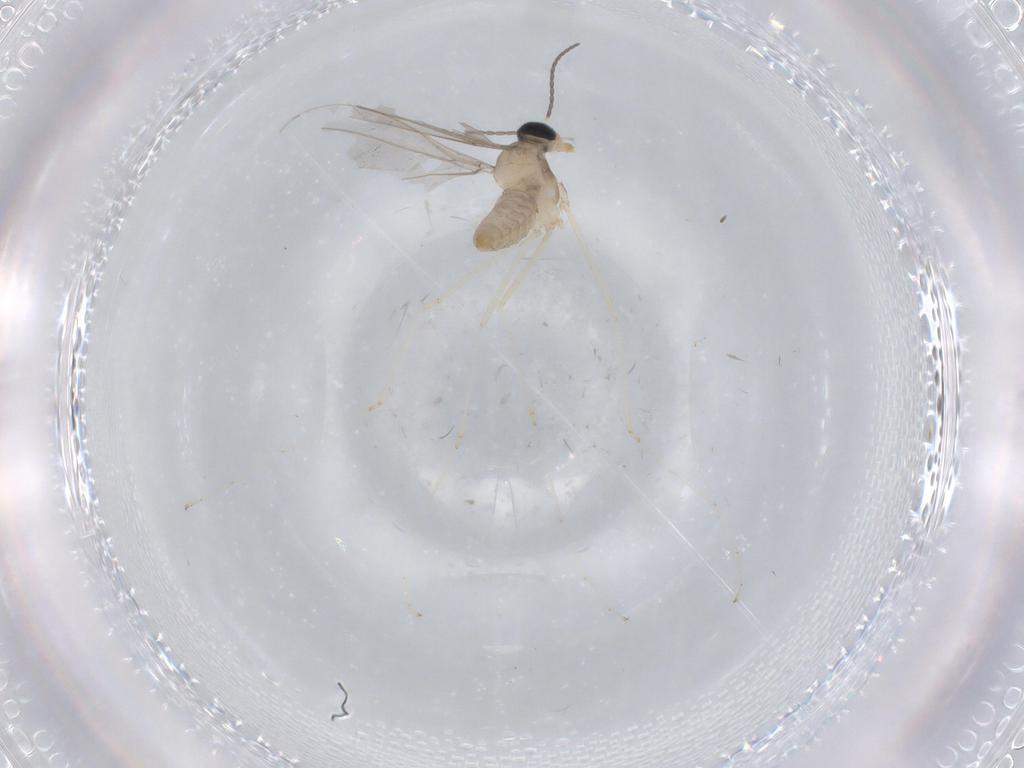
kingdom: Animalia
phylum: Arthropoda
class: Insecta
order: Diptera
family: Cecidomyiidae
